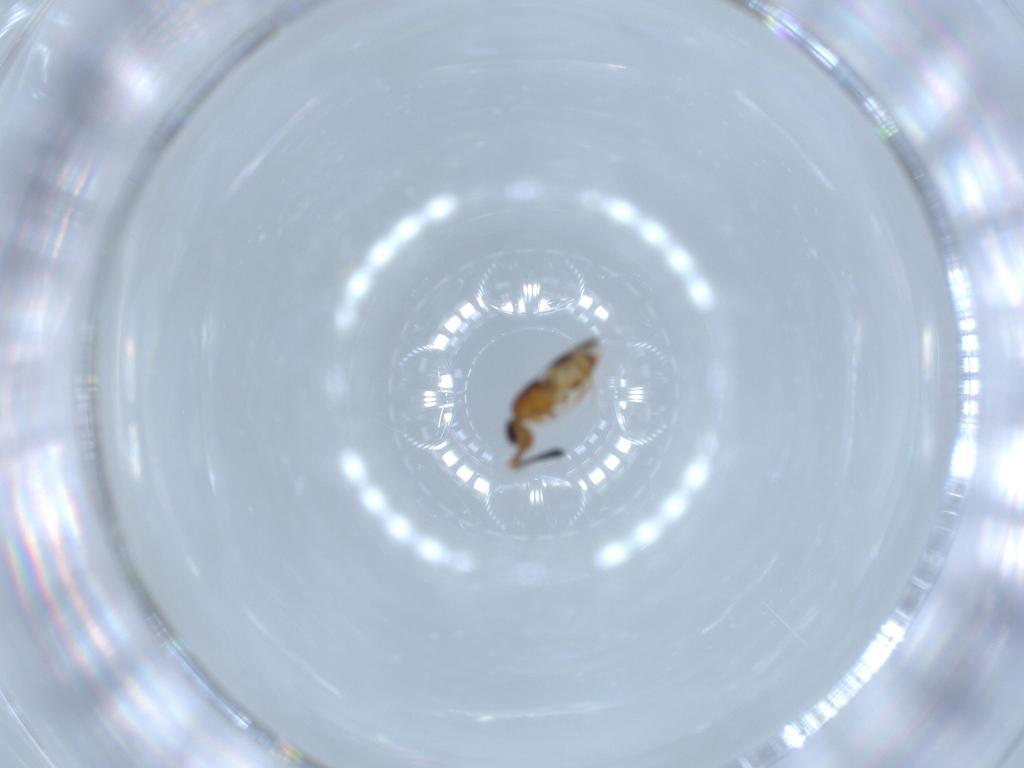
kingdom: Animalia
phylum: Arthropoda
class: Insecta
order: Hymenoptera
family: Ceraphronidae
